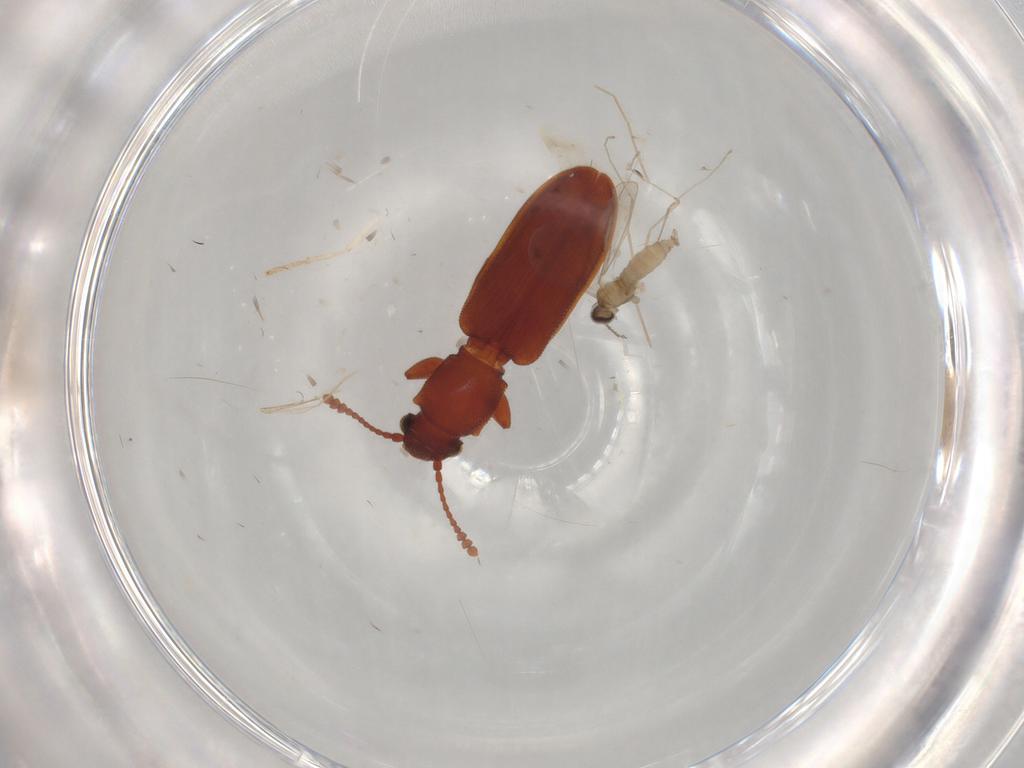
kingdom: Animalia
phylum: Arthropoda
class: Insecta
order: Diptera
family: Cecidomyiidae
